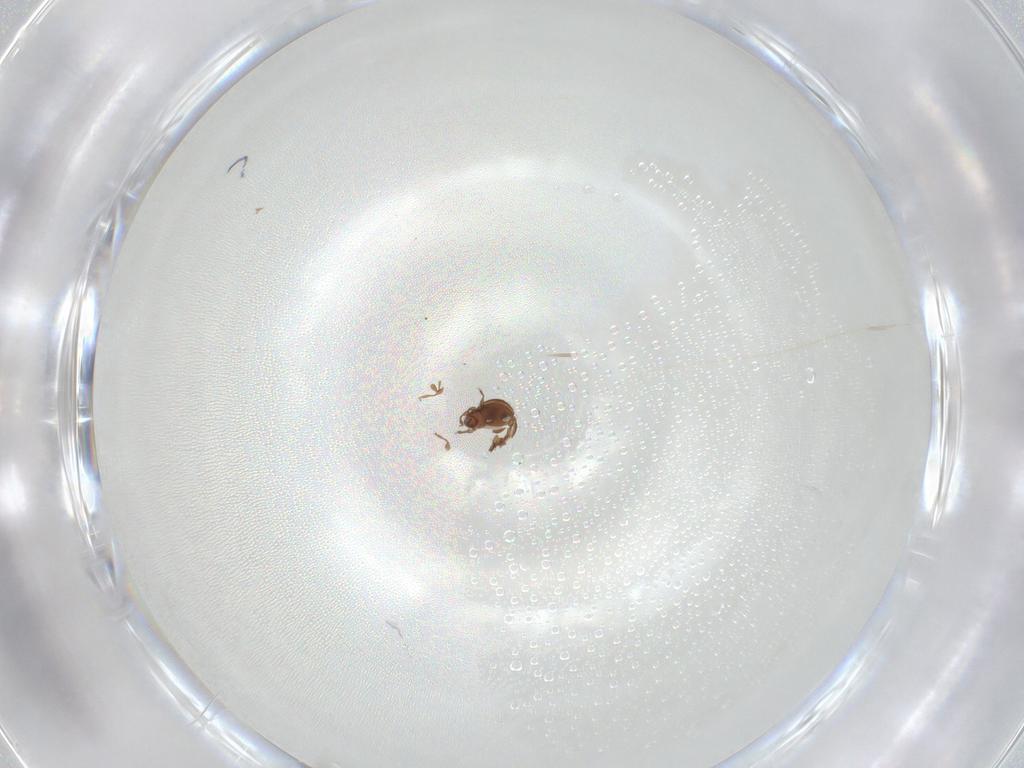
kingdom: Animalia
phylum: Arthropoda
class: Arachnida
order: Sarcoptiformes
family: Scheloribatidae
